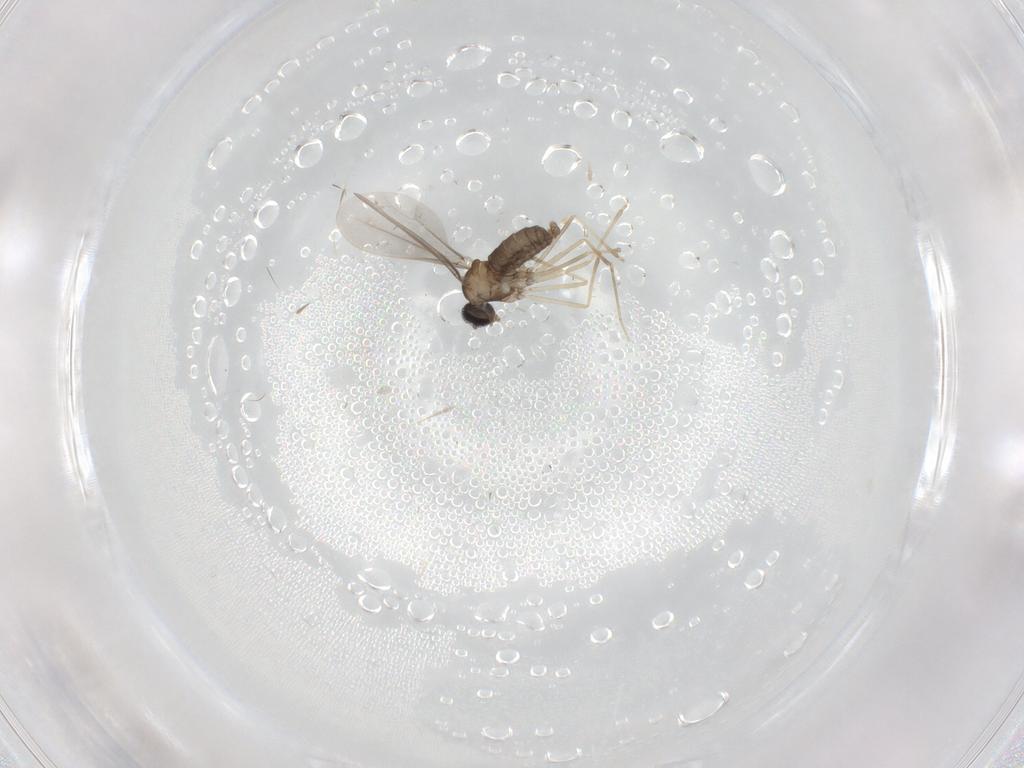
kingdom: Animalia
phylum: Arthropoda
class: Insecta
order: Diptera
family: Cecidomyiidae
